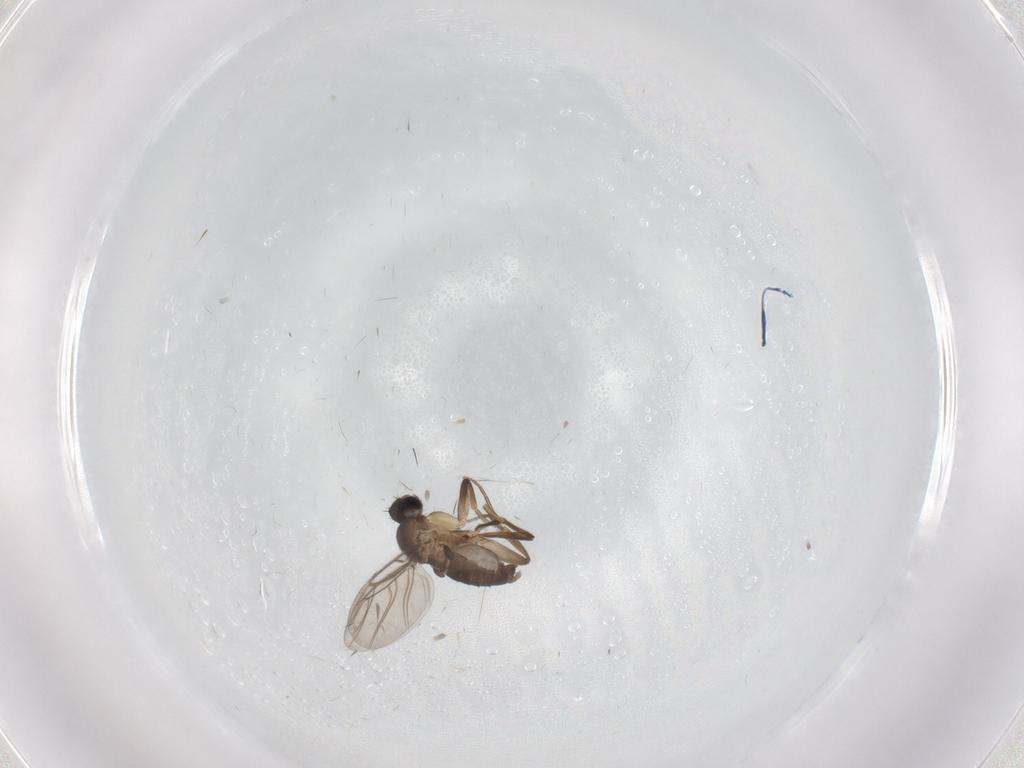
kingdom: Animalia
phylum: Arthropoda
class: Insecta
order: Diptera
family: Phoridae
